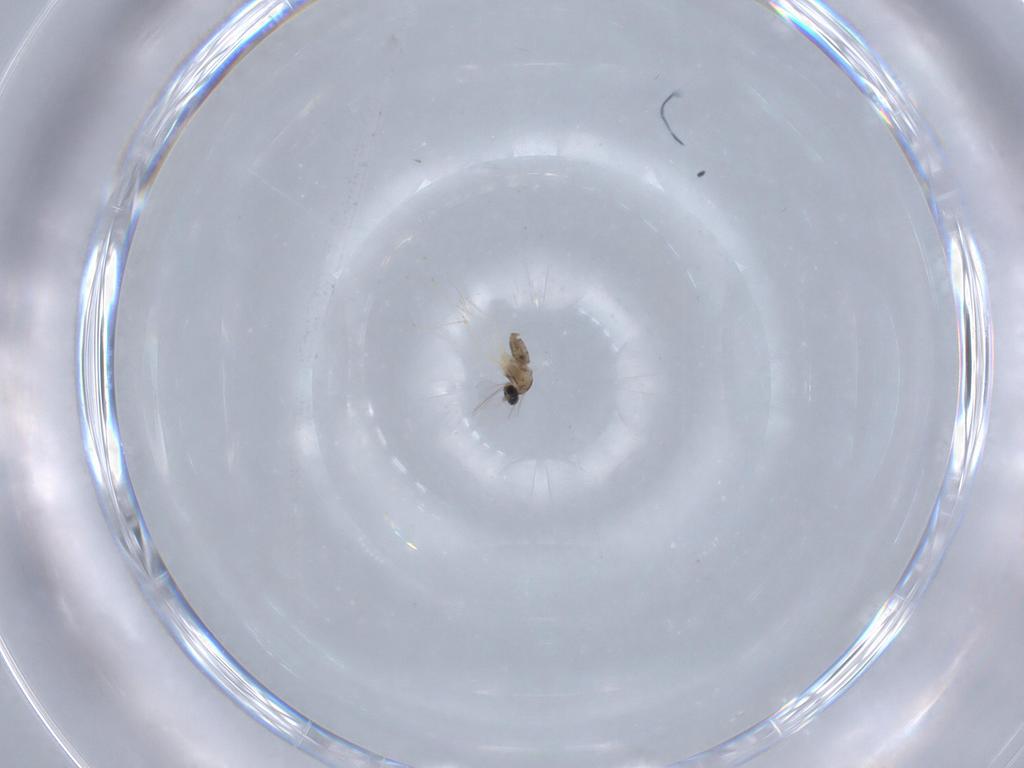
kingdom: Animalia
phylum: Arthropoda
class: Insecta
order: Diptera
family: Cecidomyiidae
